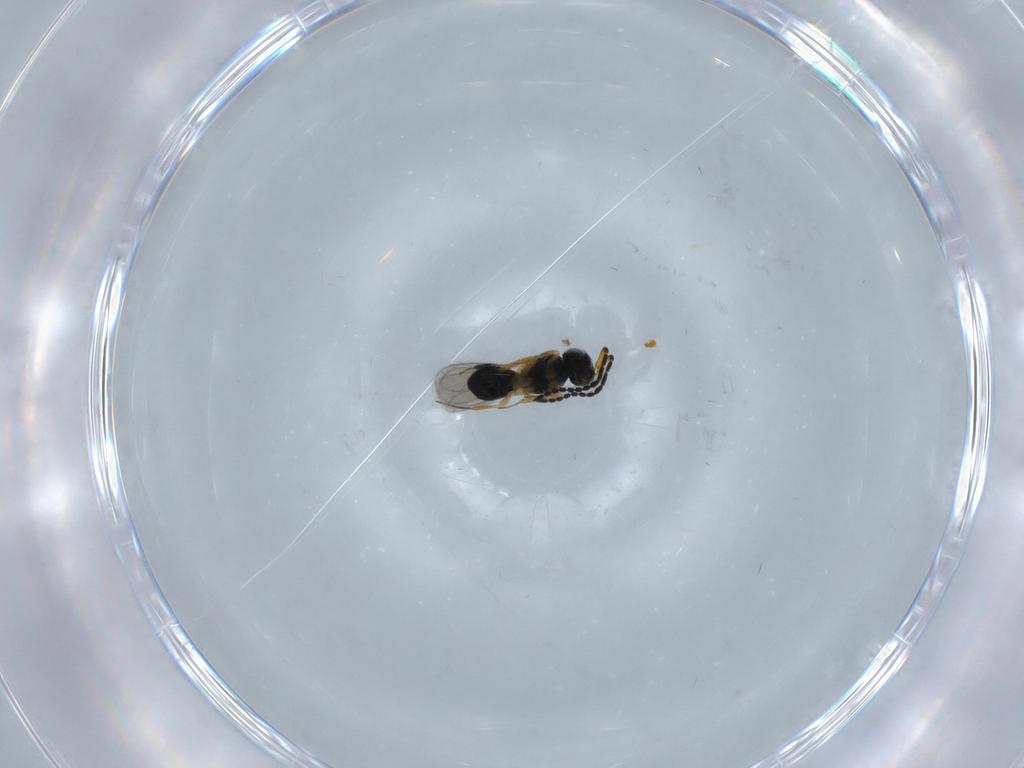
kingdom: Animalia
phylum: Arthropoda
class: Insecta
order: Hymenoptera
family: Scelionidae
